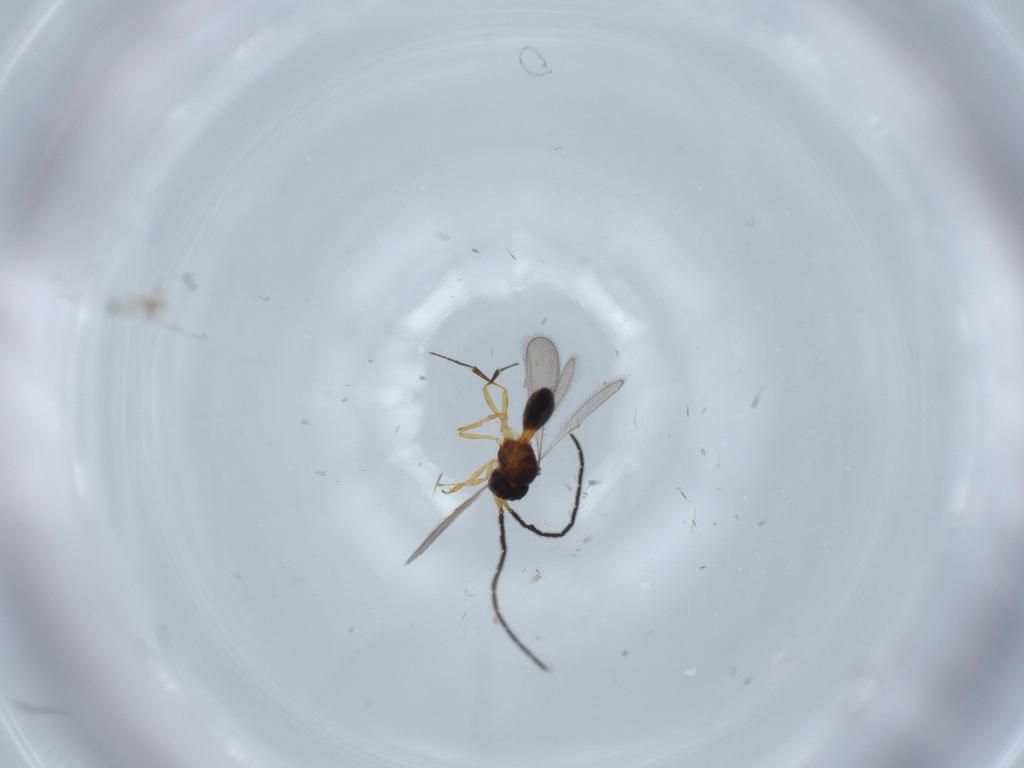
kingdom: Animalia
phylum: Arthropoda
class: Insecta
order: Hymenoptera
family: Scelionidae
